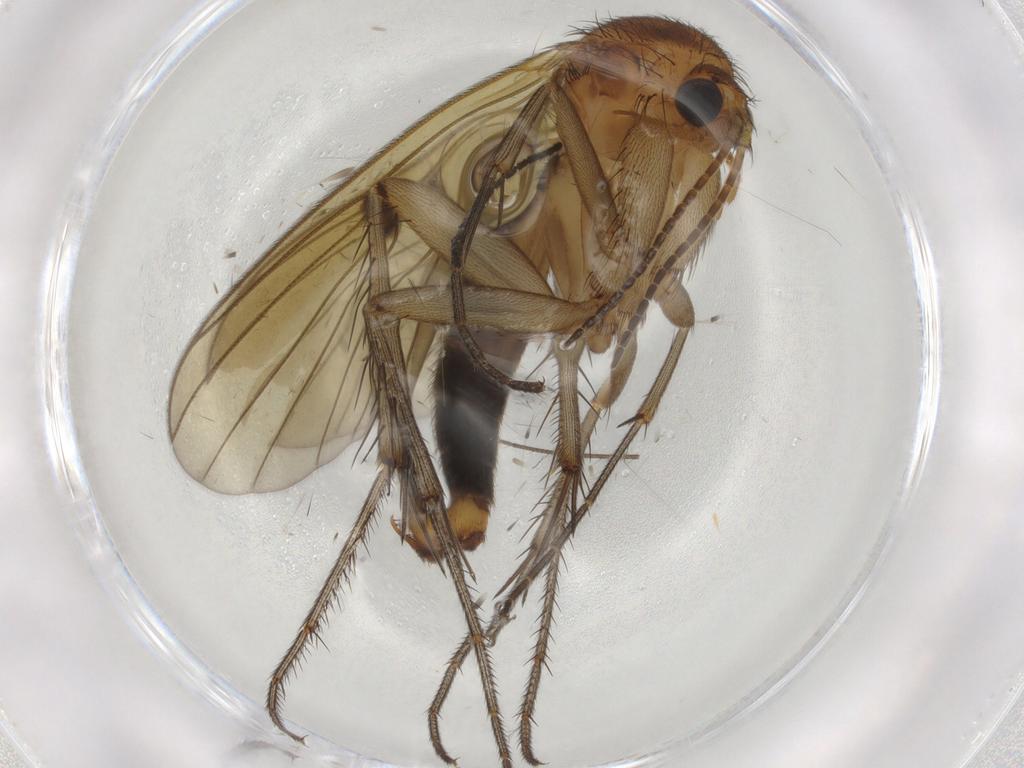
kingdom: Animalia
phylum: Arthropoda
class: Insecta
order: Diptera
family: Limoniidae
